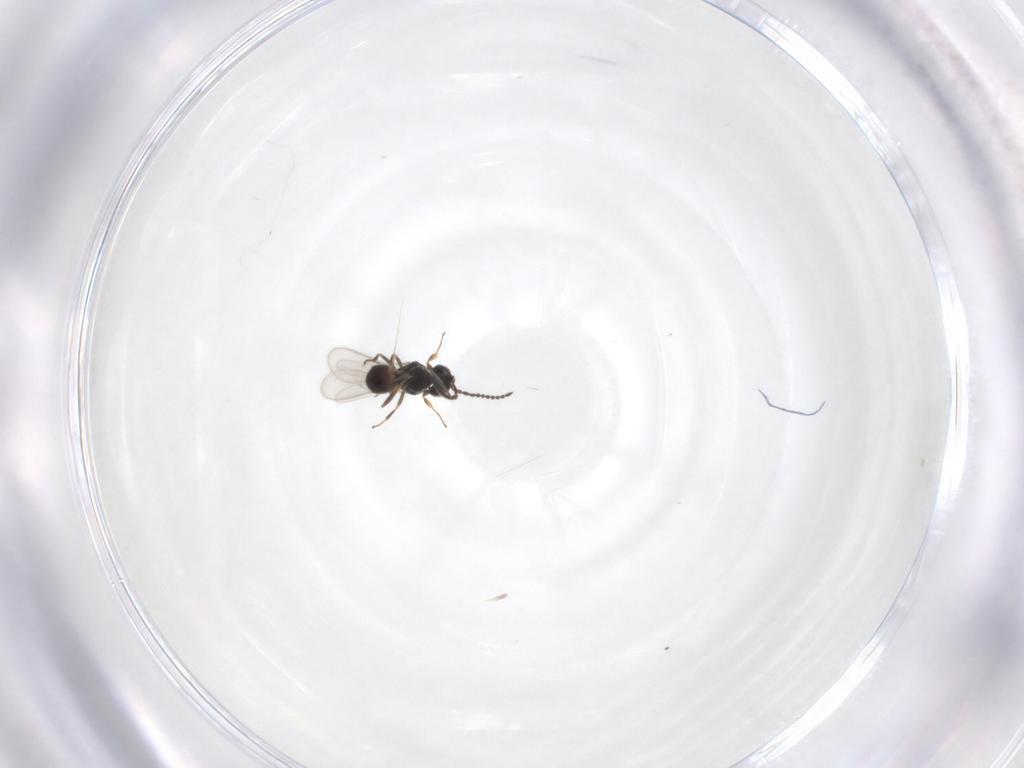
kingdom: Animalia
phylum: Arthropoda
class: Insecta
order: Hymenoptera
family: Scelionidae
